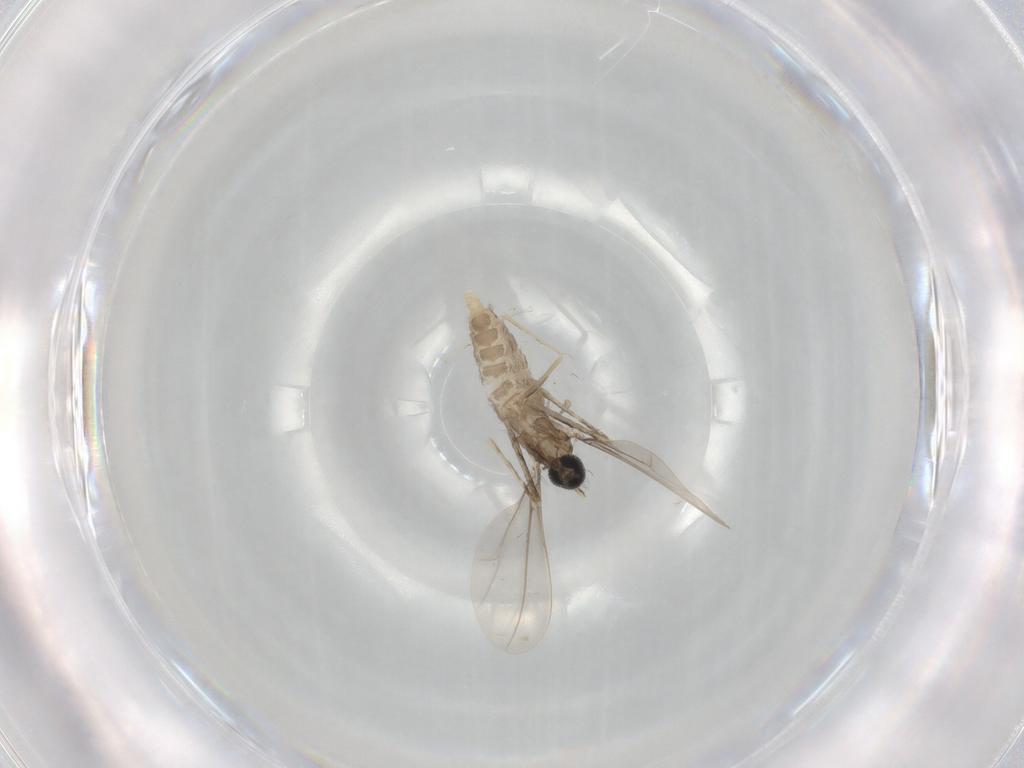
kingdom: Animalia
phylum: Arthropoda
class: Insecta
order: Diptera
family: Cecidomyiidae
